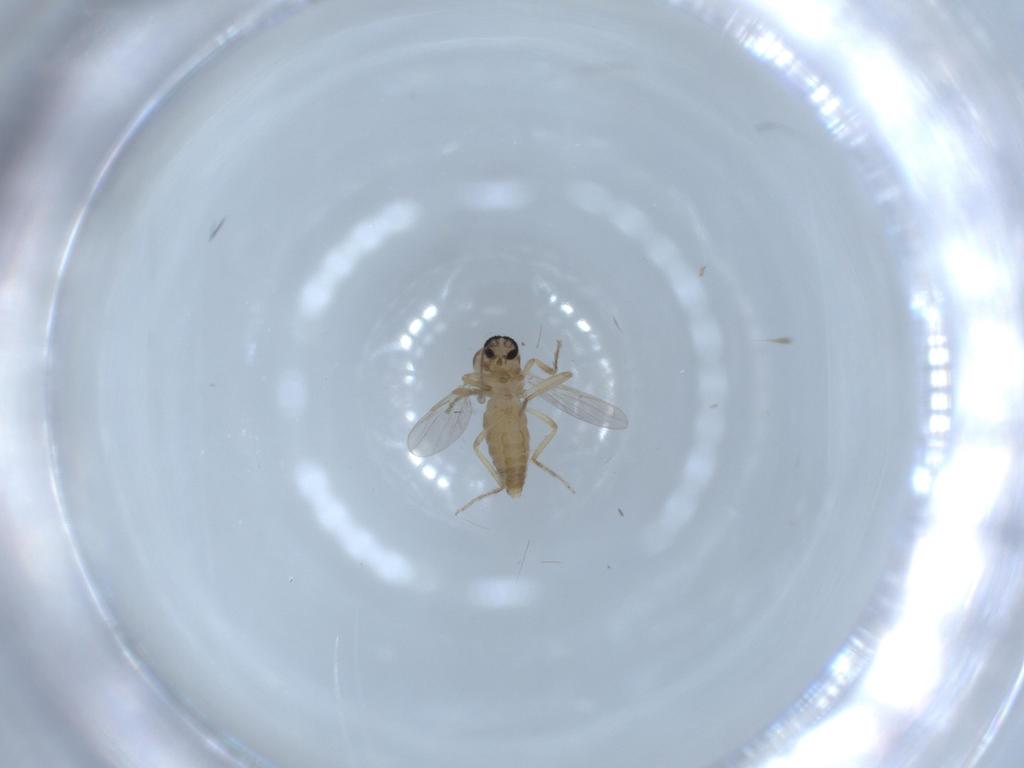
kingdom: Animalia
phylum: Arthropoda
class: Insecta
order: Diptera
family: Ceratopogonidae
